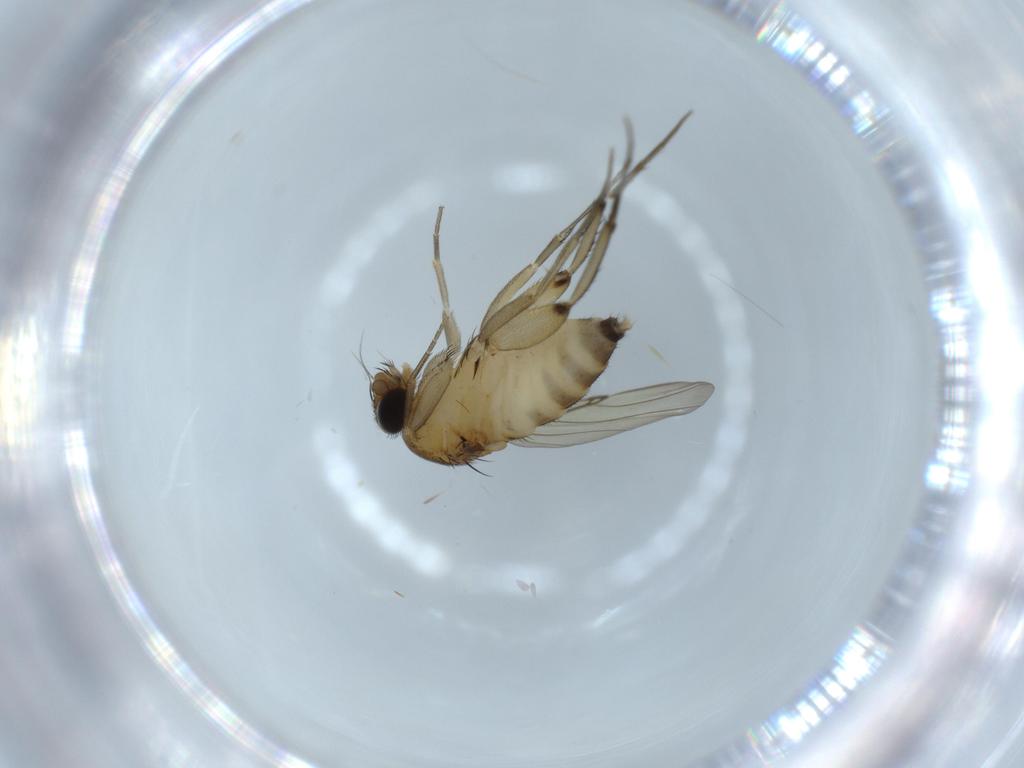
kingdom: Animalia
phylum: Arthropoda
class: Insecta
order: Diptera
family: Phoridae
